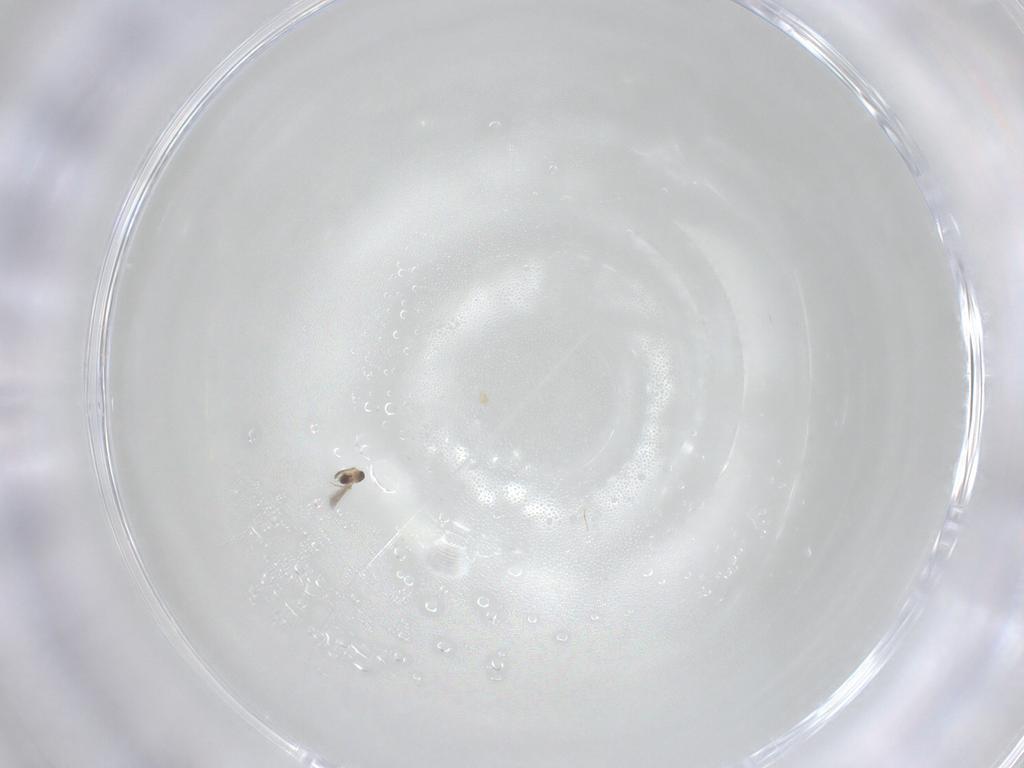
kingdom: Animalia
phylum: Arthropoda
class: Insecta
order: Hymenoptera
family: Mymaridae
